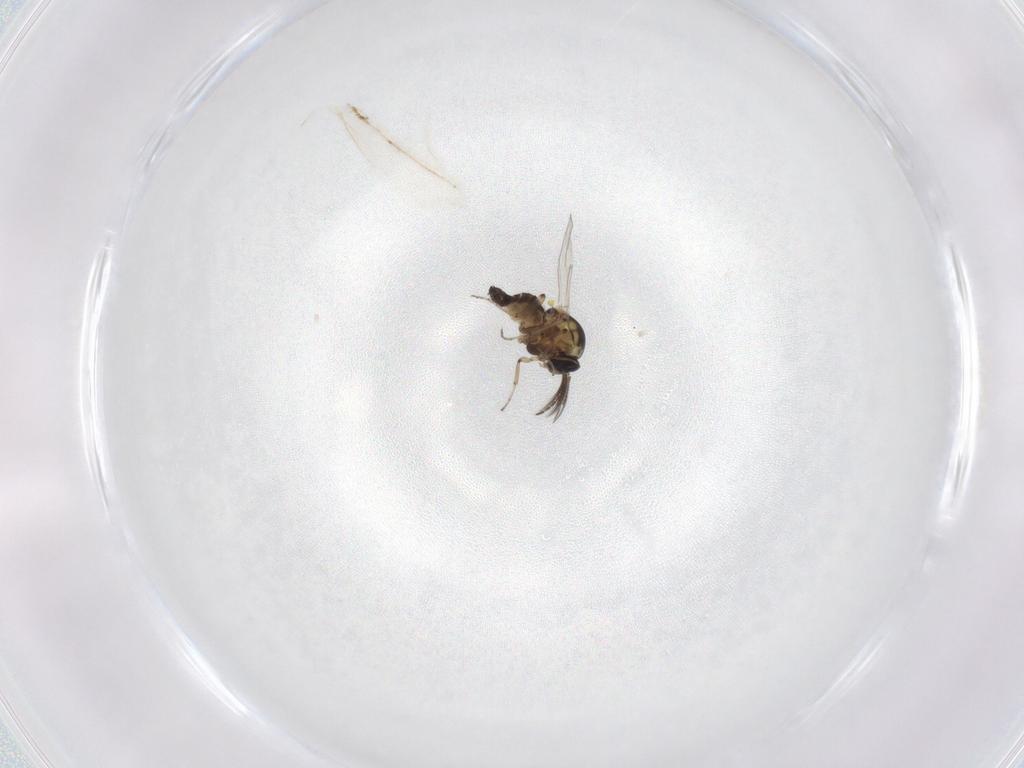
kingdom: Animalia
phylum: Arthropoda
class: Insecta
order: Diptera
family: Ceratopogonidae
